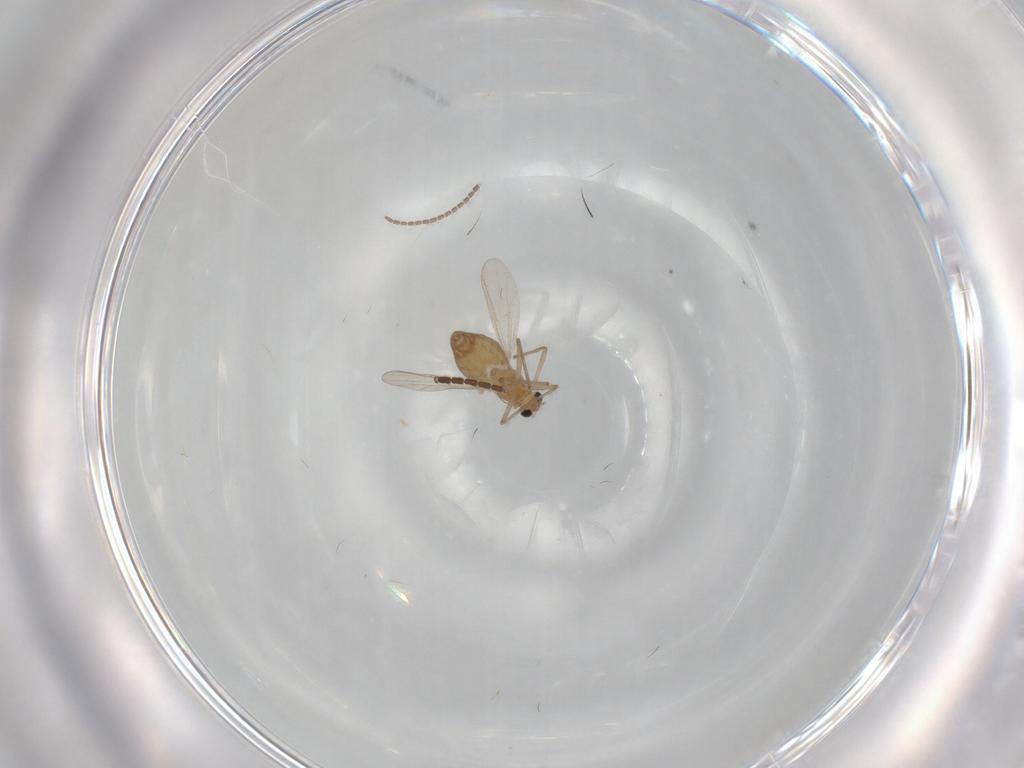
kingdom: Animalia
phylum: Arthropoda
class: Insecta
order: Diptera
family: Chironomidae
